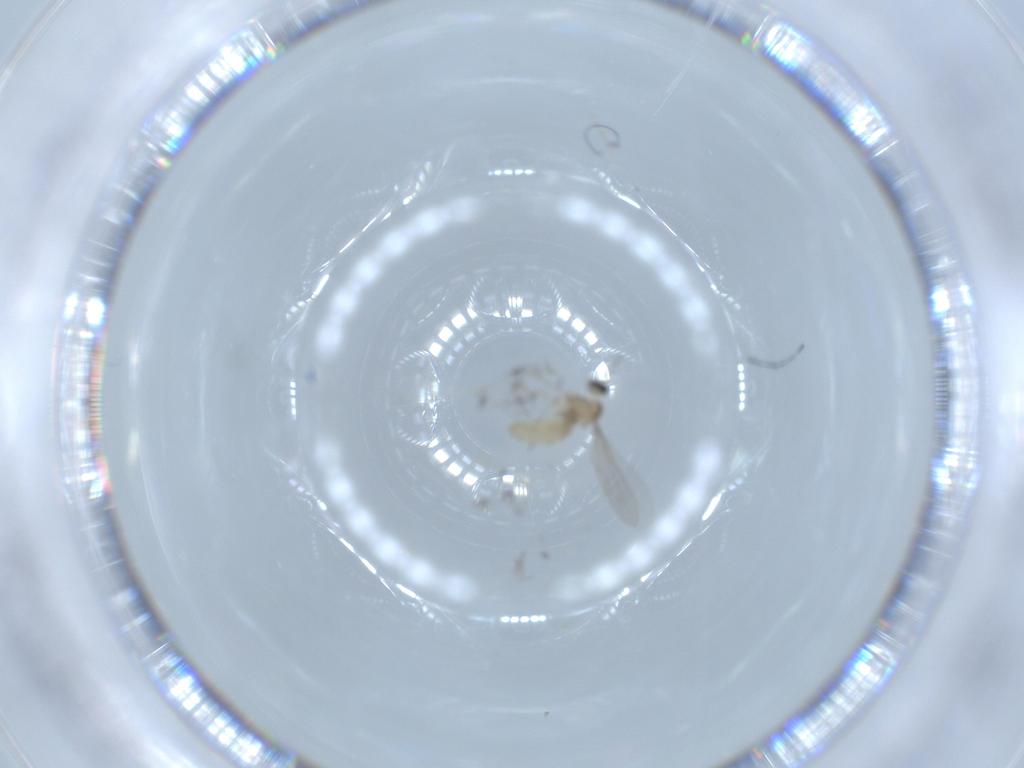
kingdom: Animalia
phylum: Arthropoda
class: Insecta
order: Diptera
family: Cecidomyiidae
